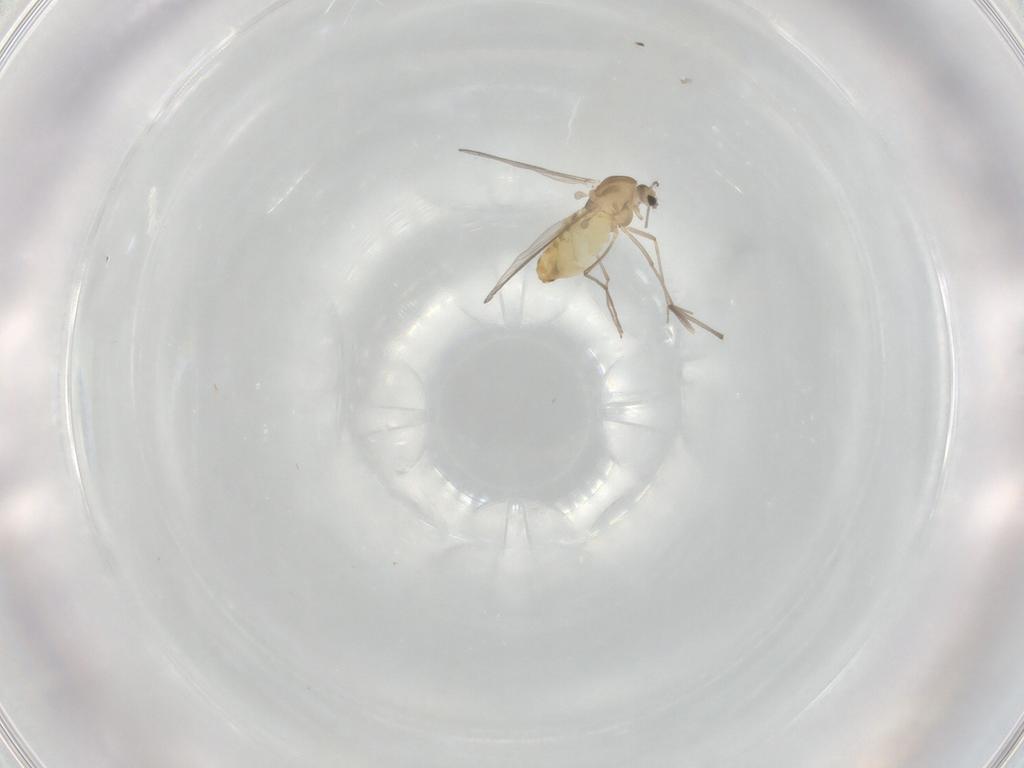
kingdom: Animalia
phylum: Arthropoda
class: Insecta
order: Diptera
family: Chironomidae
